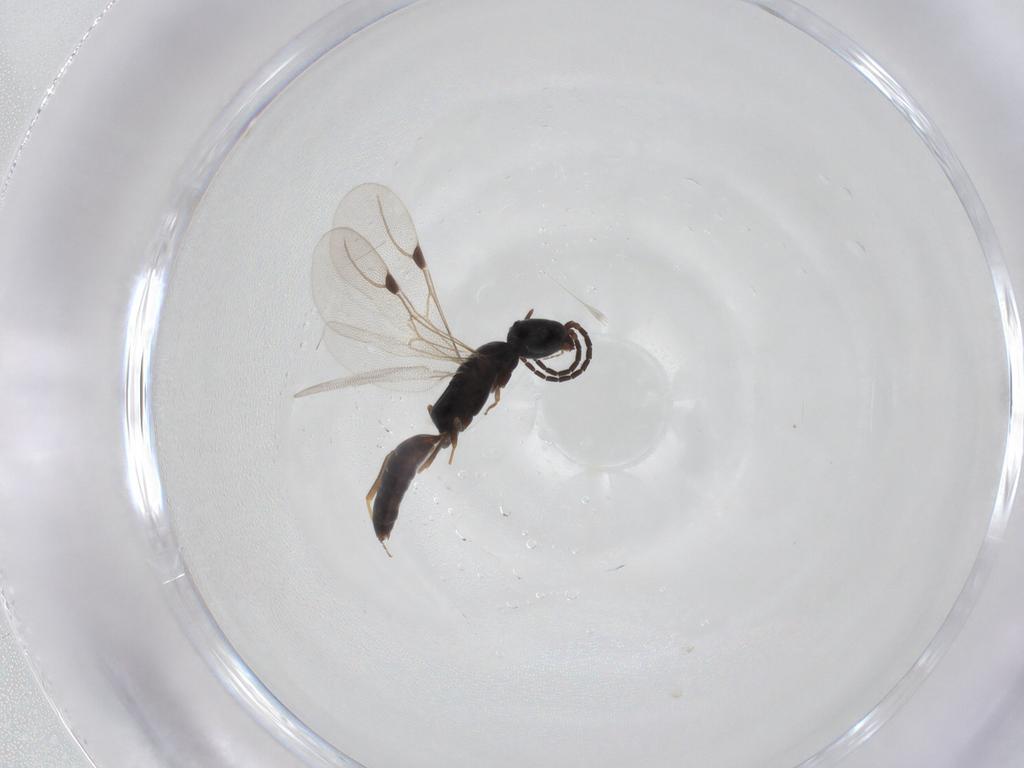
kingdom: Animalia
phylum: Arthropoda
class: Insecta
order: Hymenoptera
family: Bethylidae
